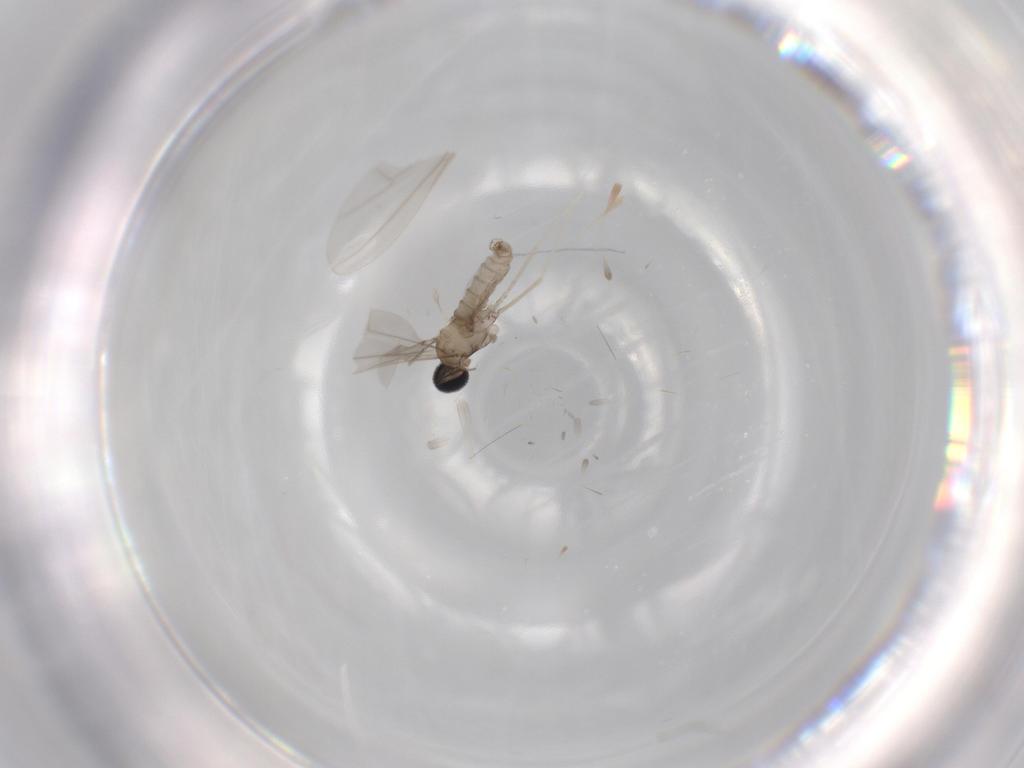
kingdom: Animalia
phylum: Arthropoda
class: Insecta
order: Diptera
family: Cecidomyiidae
